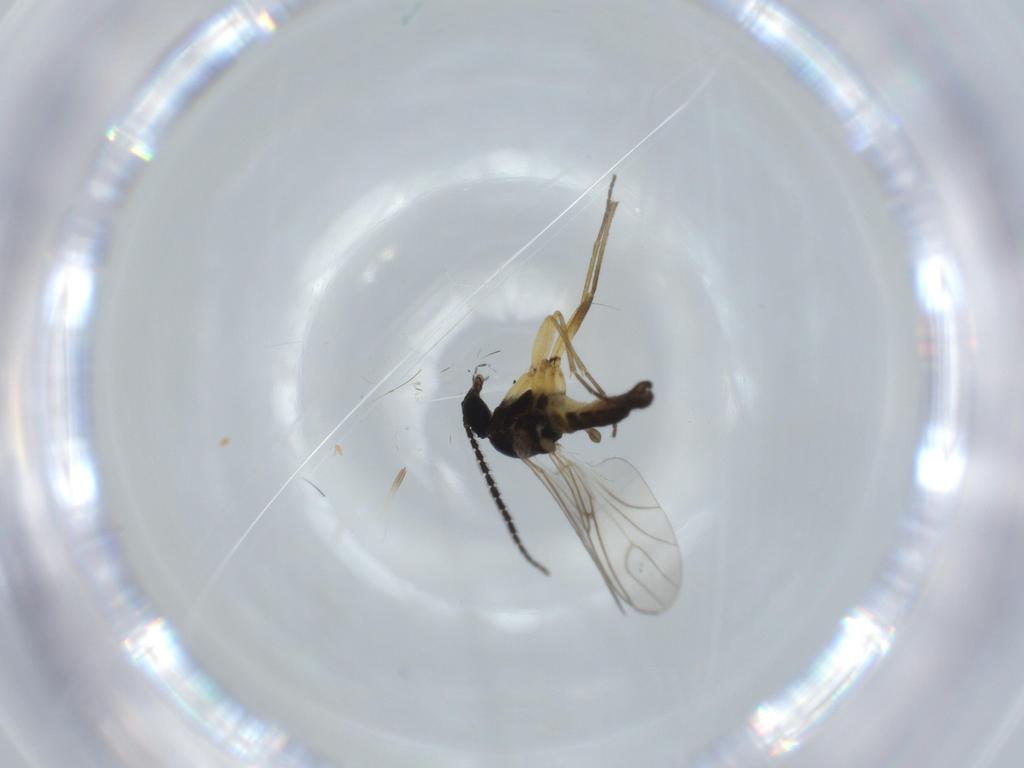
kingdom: Animalia
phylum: Arthropoda
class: Insecta
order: Diptera
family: Sciaridae
